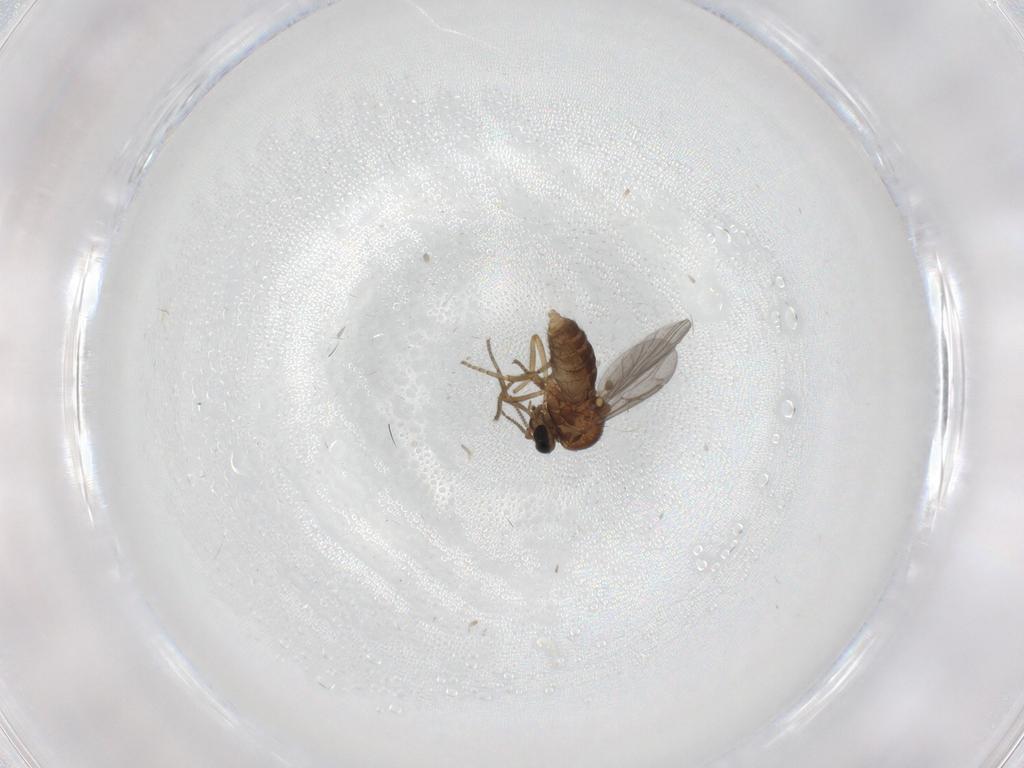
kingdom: Animalia
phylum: Arthropoda
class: Insecta
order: Diptera
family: Ceratopogonidae
